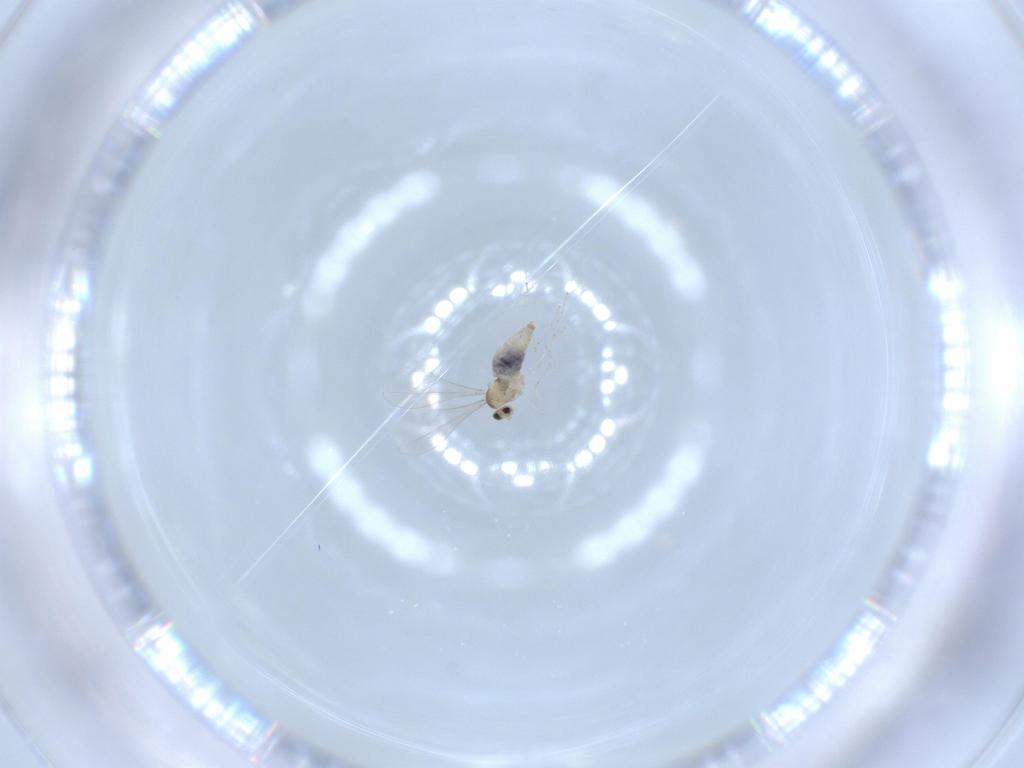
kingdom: Animalia
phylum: Arthropoda
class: Insecta
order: Diptera
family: Cecidomyiidae
